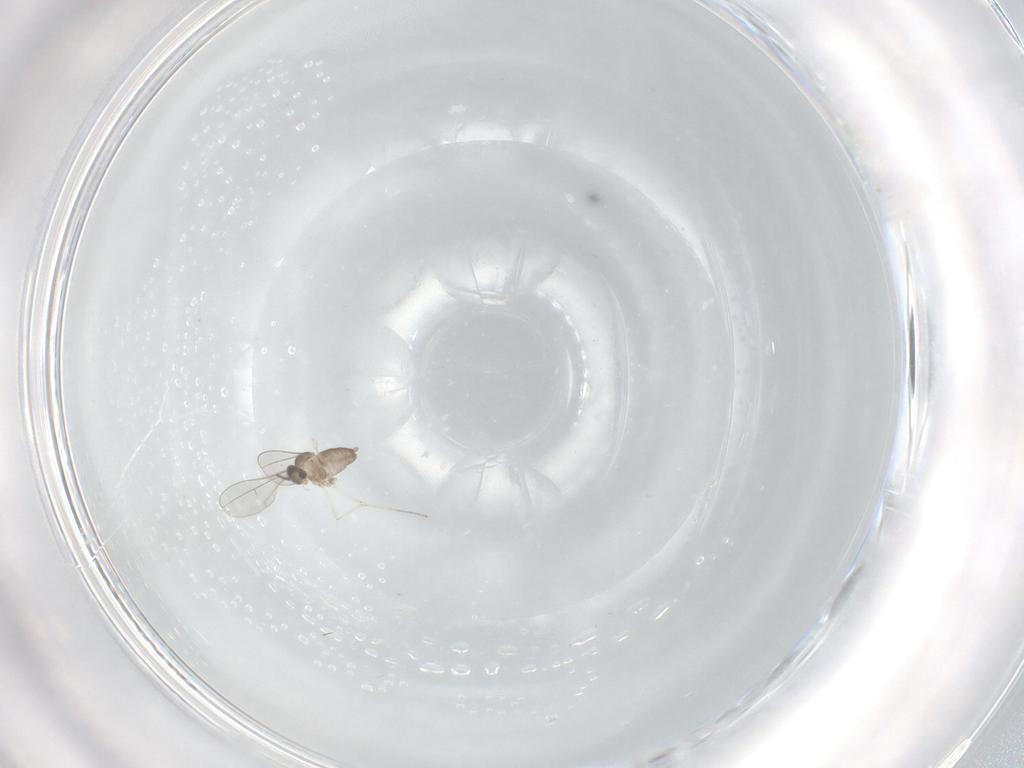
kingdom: Animalia
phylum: Arthropoda
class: Insecta
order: Diptera
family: Cecidomyiidae
